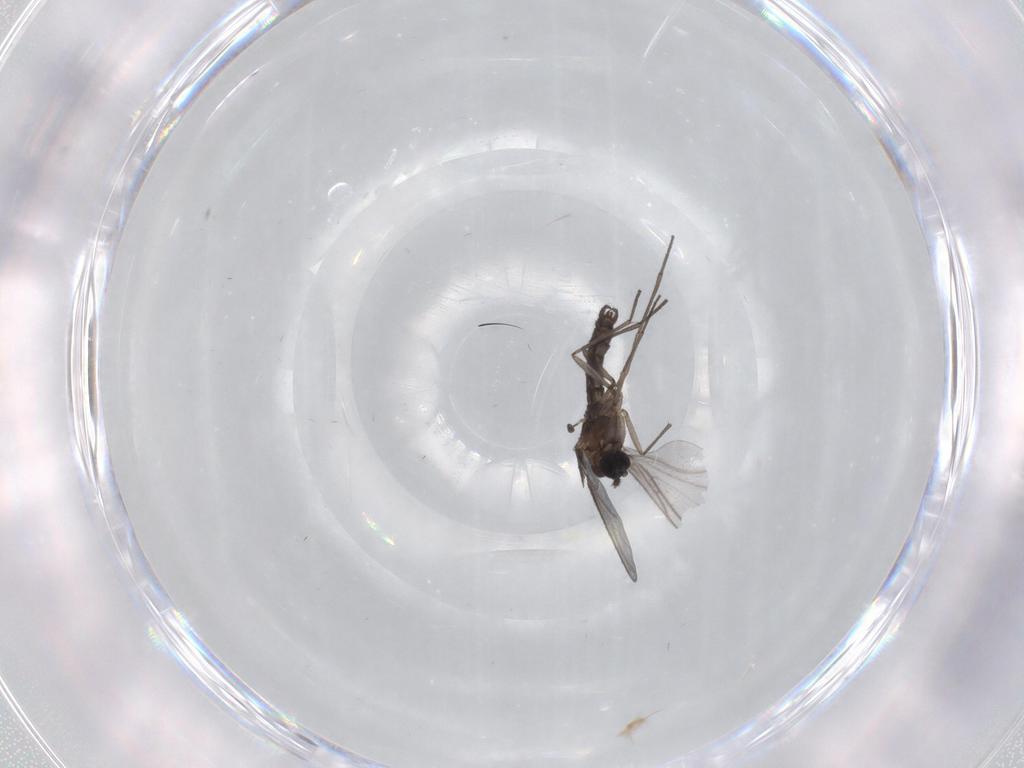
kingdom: Animalia
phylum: Arthropoda
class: Insecta
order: Diptera
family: Sciaridae
